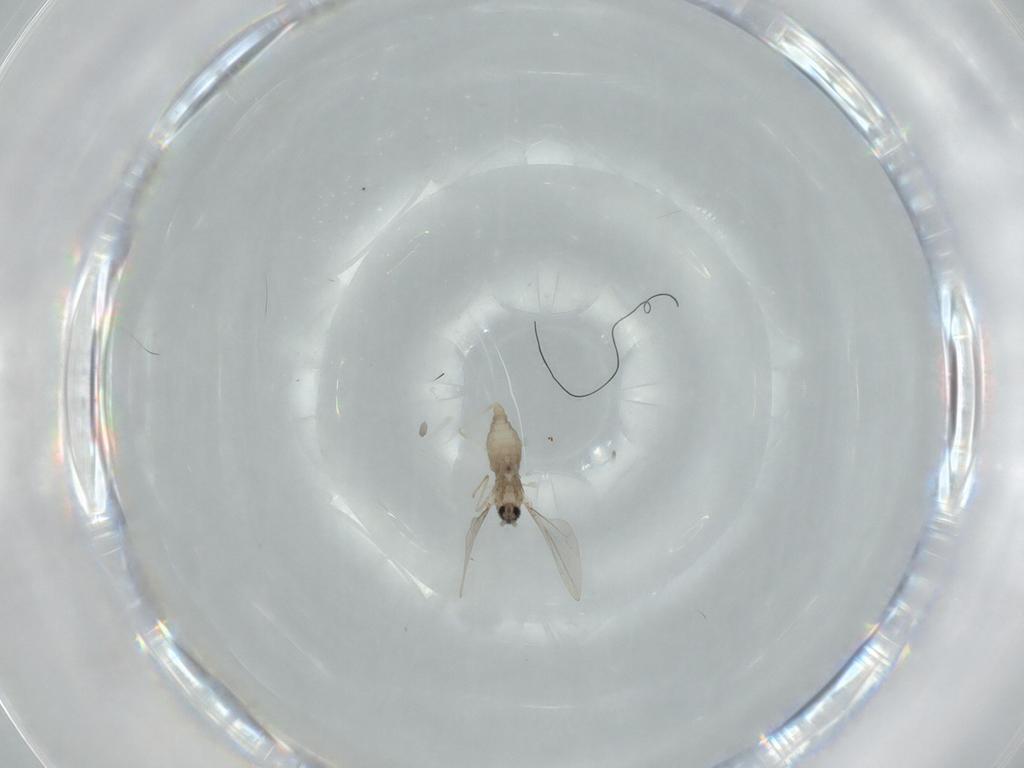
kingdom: Animalia
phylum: Arthropoda
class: Insecta
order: Diptera
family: Cecidomyiidae
